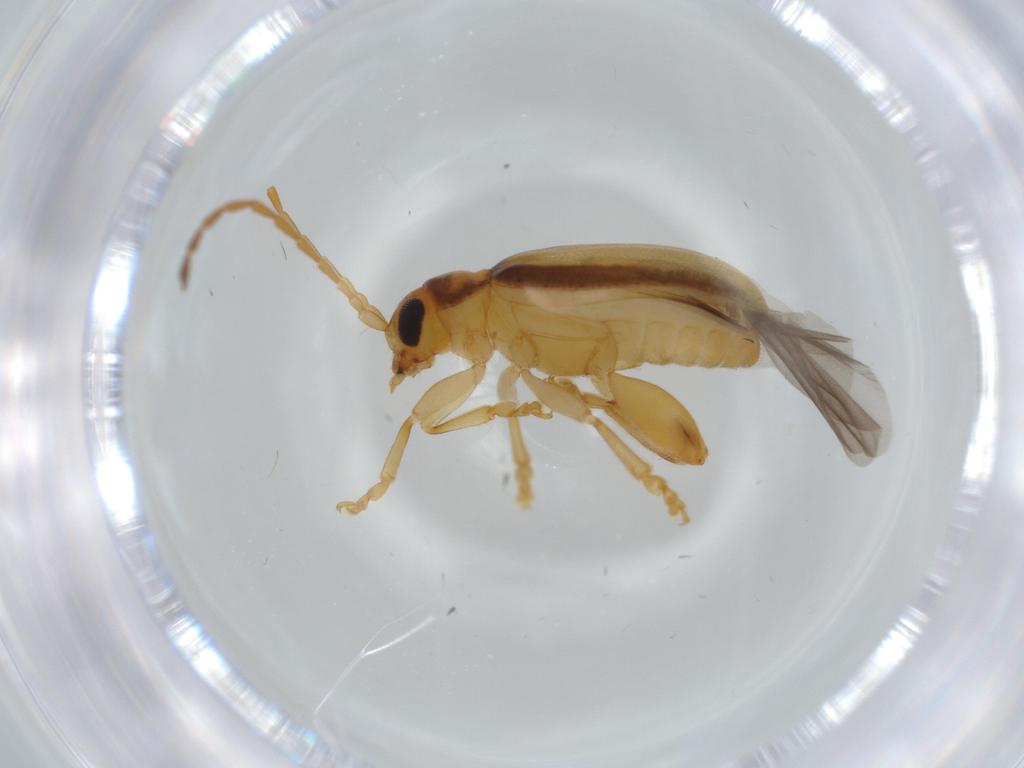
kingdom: Animalia
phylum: Arthropoda
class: Insecta
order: Coleoptera
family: Chrysomelidae
